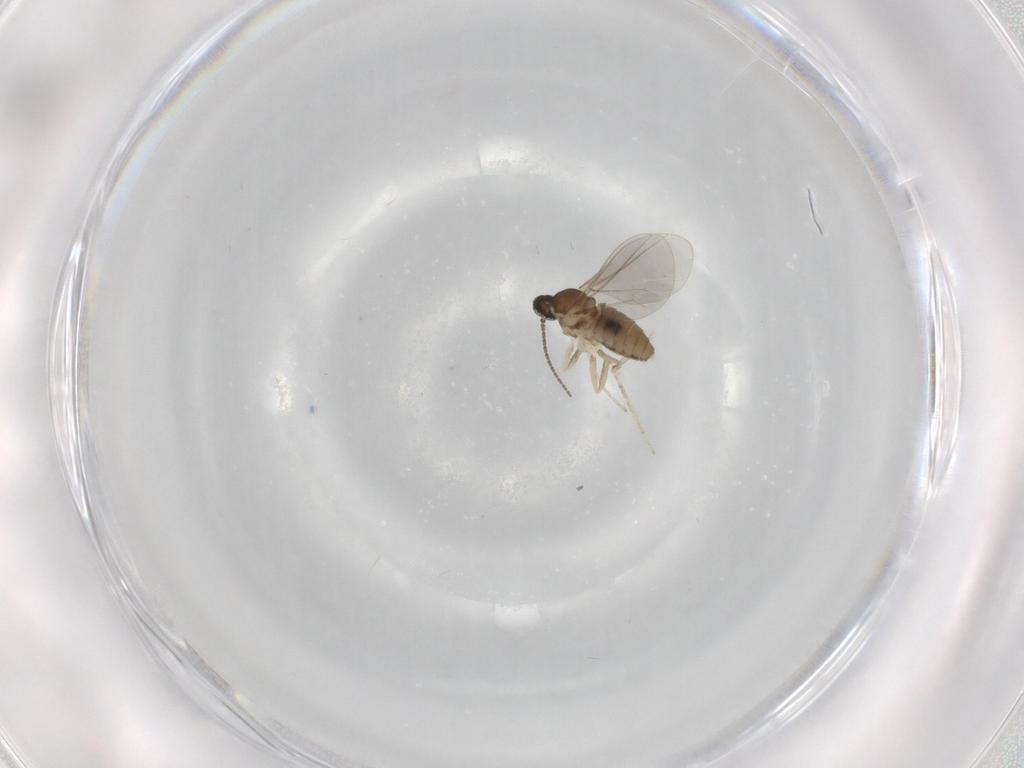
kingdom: Animalia
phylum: Arthropoda
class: Insecta
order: Diptera
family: Cecidomyiidae
